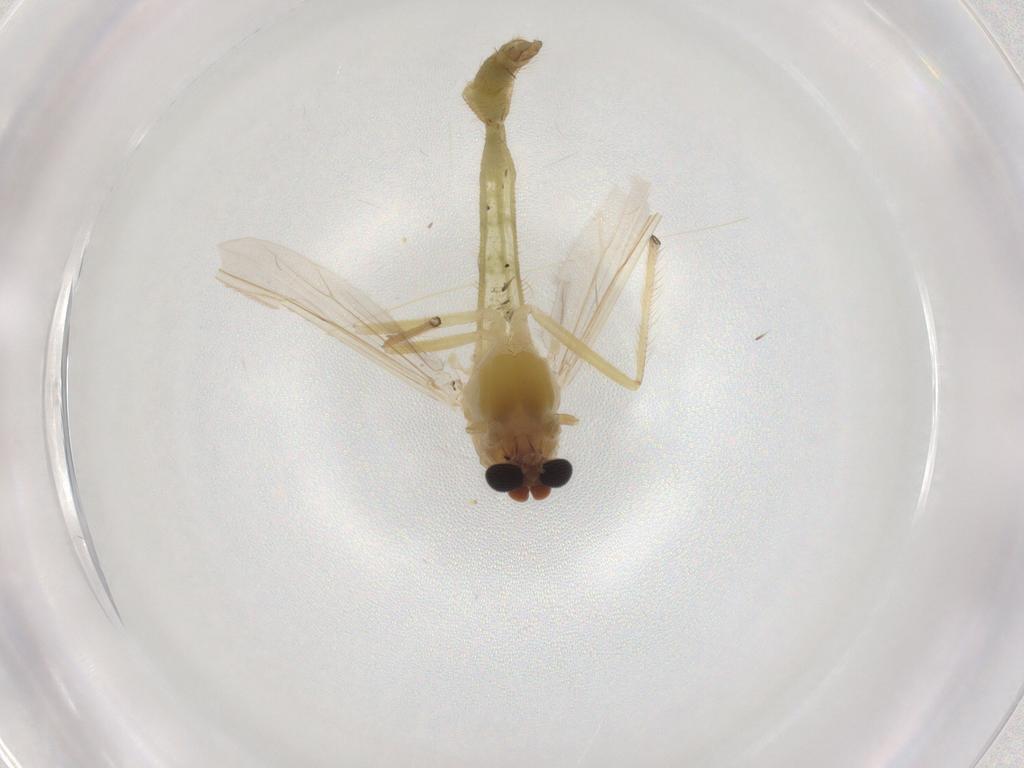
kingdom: Animalia
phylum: Arthropoda
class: Insecta
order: Diptera
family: Chironomidae
